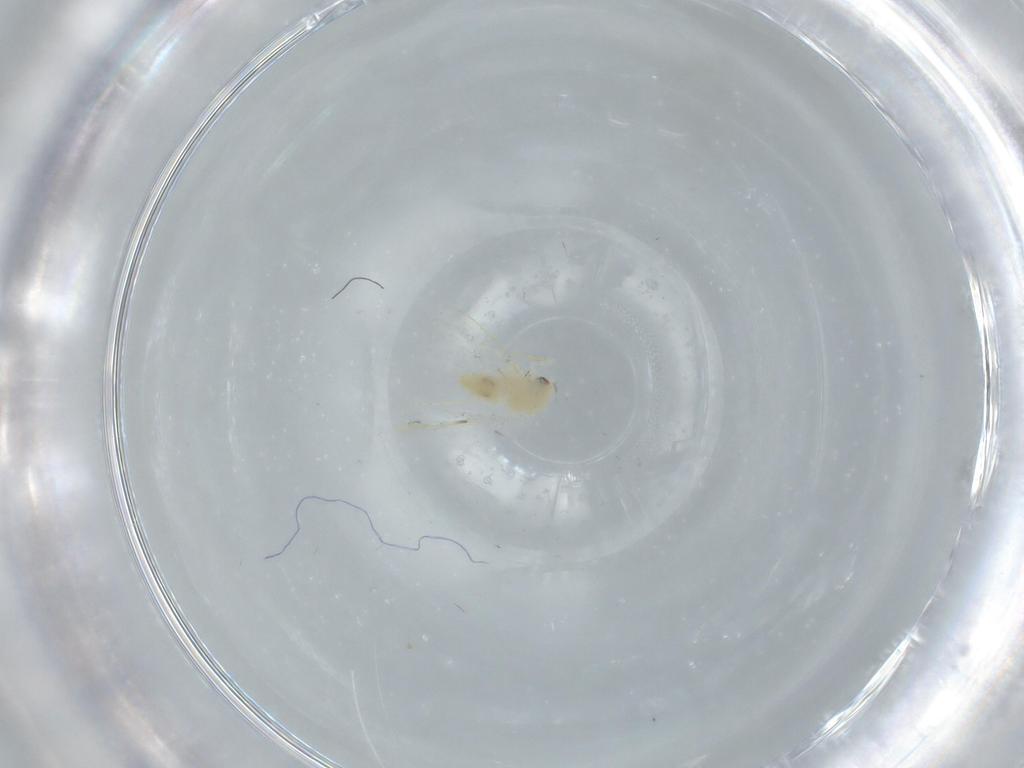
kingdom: Animalia
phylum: Arthropoda
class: Insecta
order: Hemiptera
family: Aleyrodidae
